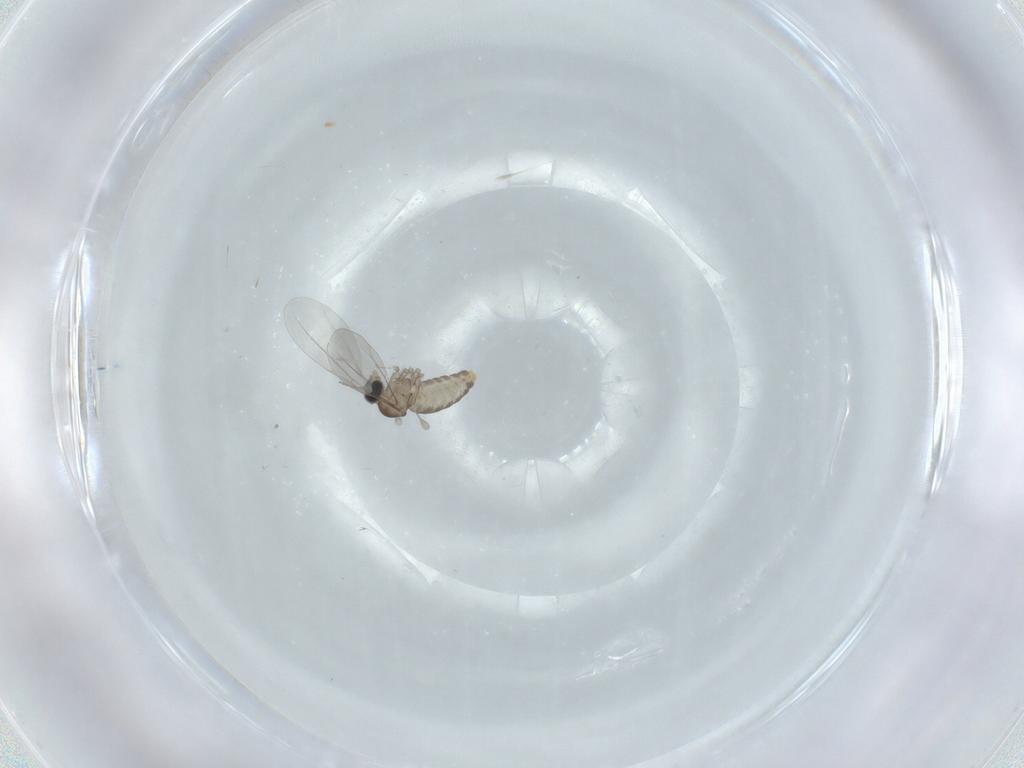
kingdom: Animalia
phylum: Arthropoda
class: Insecta
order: Diptera
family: Cecidomyiidae
